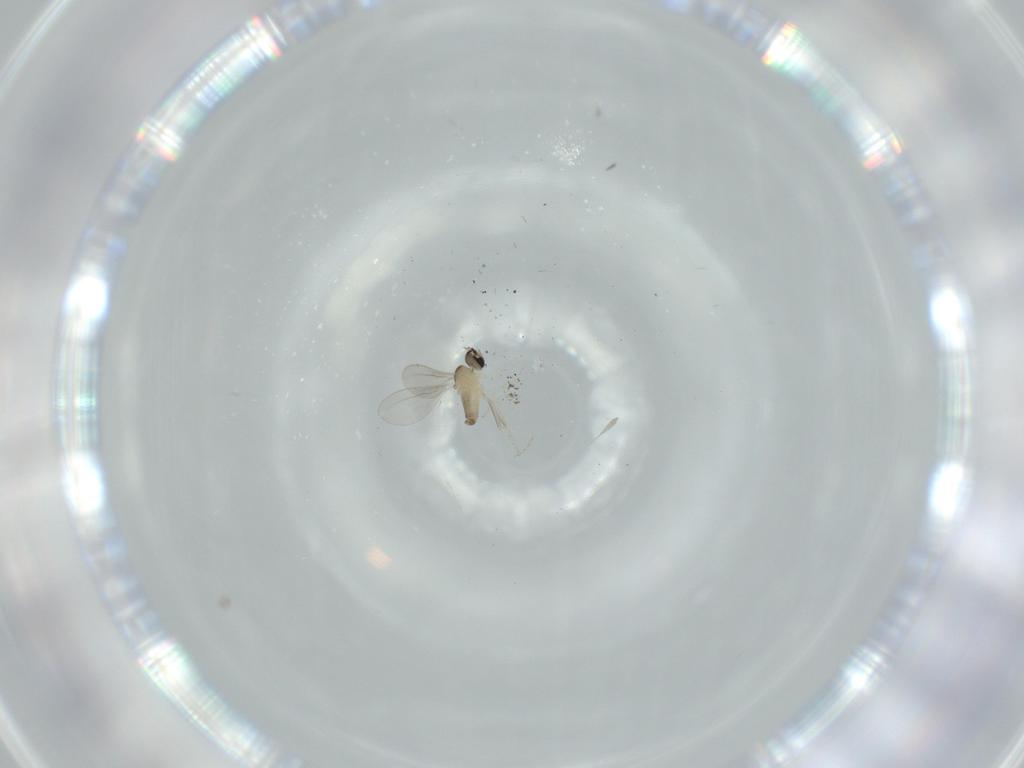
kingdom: Animalia
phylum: Arthropoda
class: Insecta
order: Diptera
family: Cecidomyiidae
